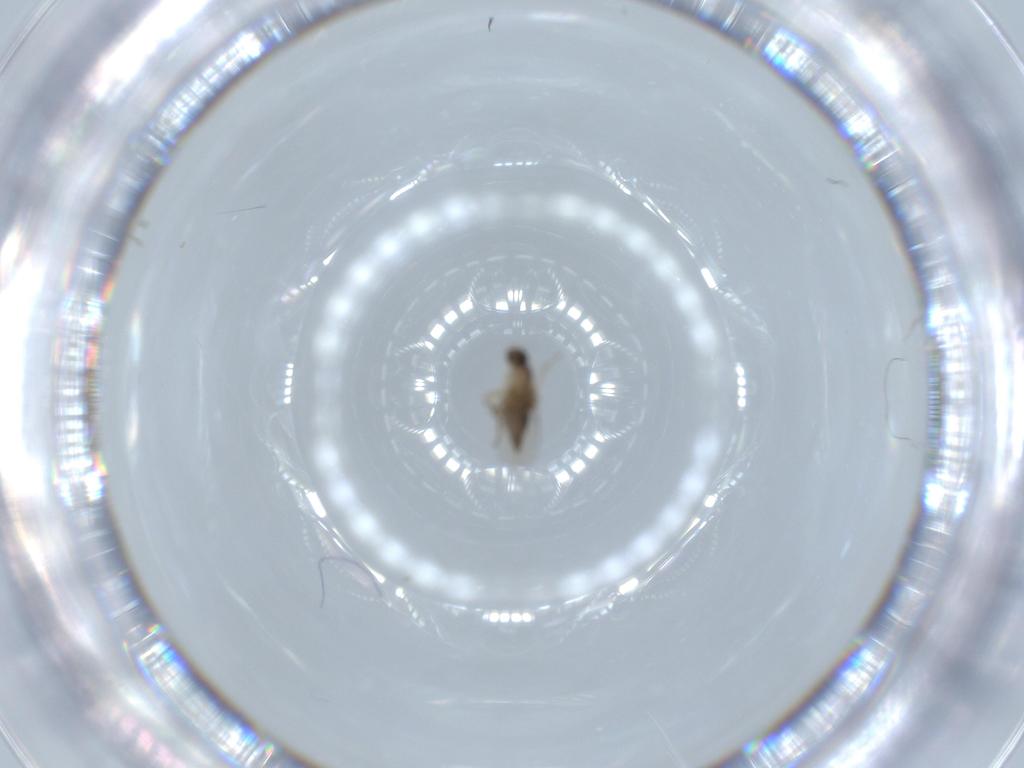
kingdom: Animalia
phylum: Arthropoda
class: Insecta
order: Diptera
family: Phoridae
